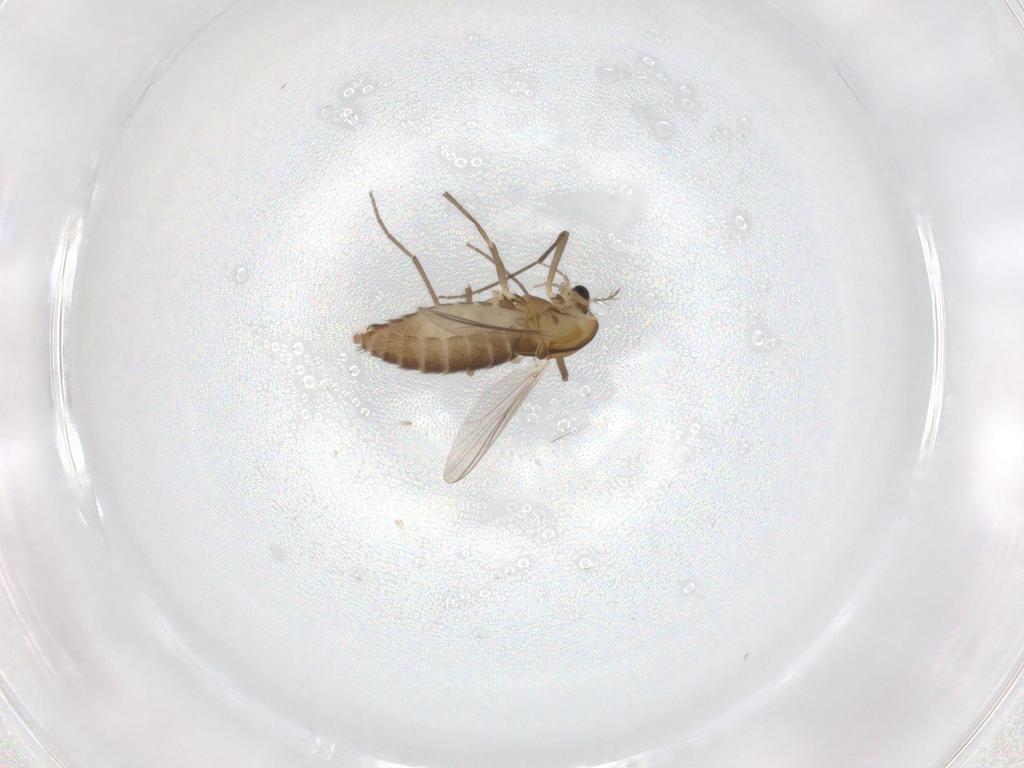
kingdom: Animalia
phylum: Arthropoda
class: Insecta
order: Diptera
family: Chironomidae
